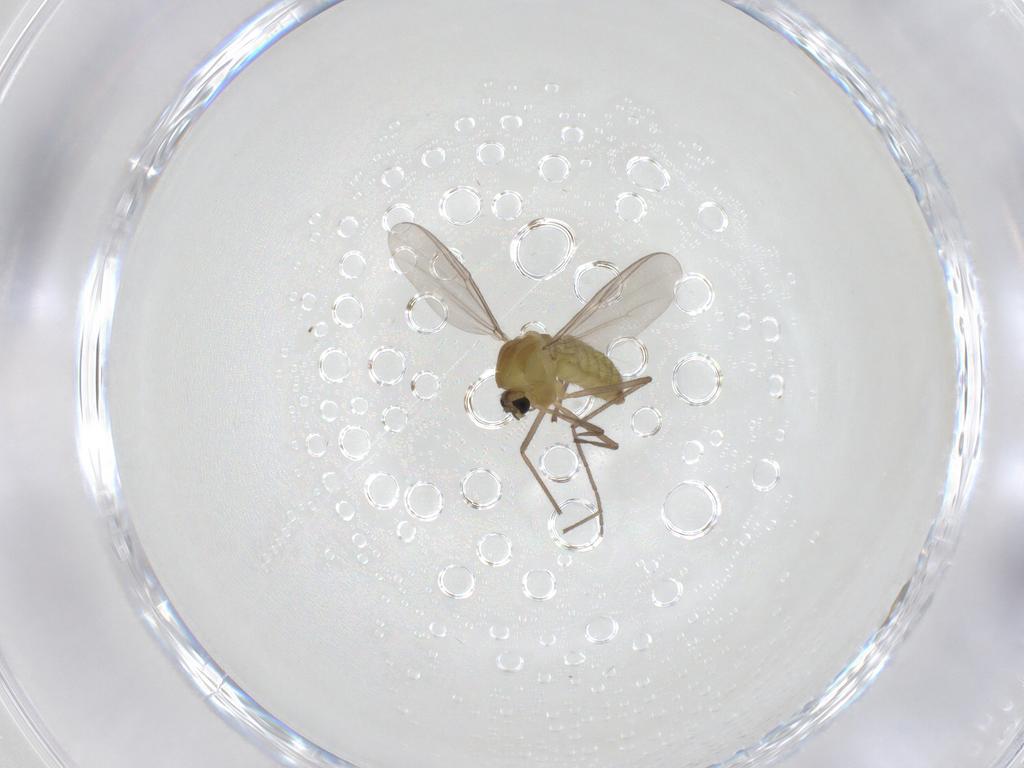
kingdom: Animalia
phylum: Arthropoda
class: Insecta
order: Diptera
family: Chironomidae
